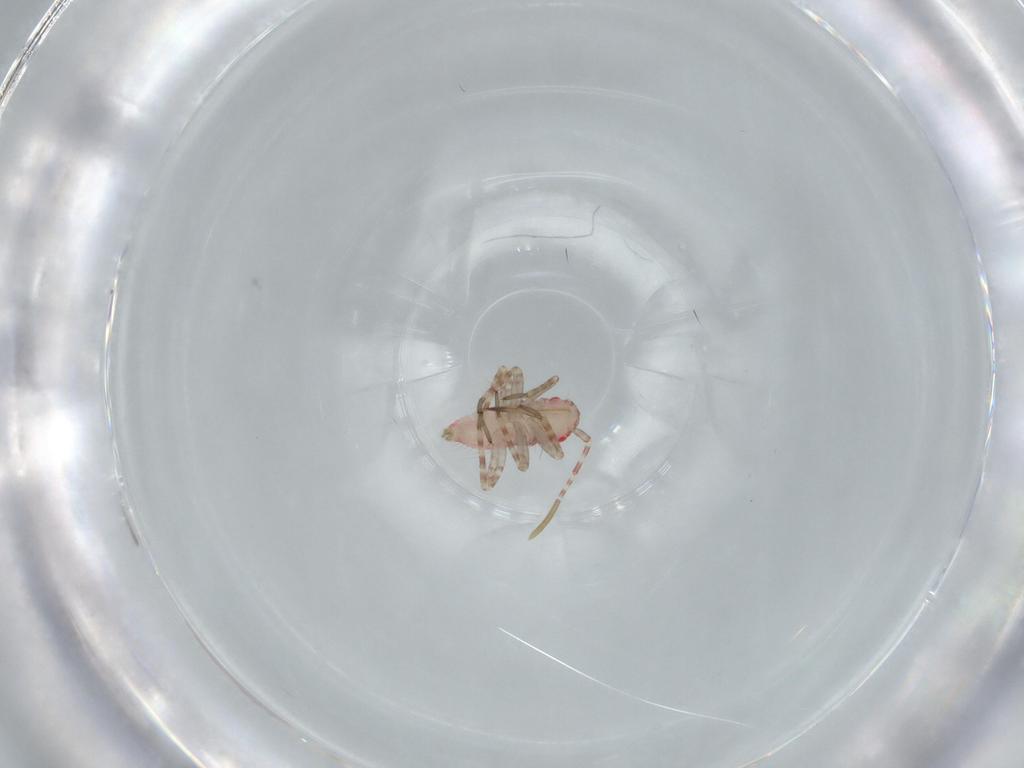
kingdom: Animalia
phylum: Arthropoda
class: Insecta
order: Hemiptera
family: Miridae
